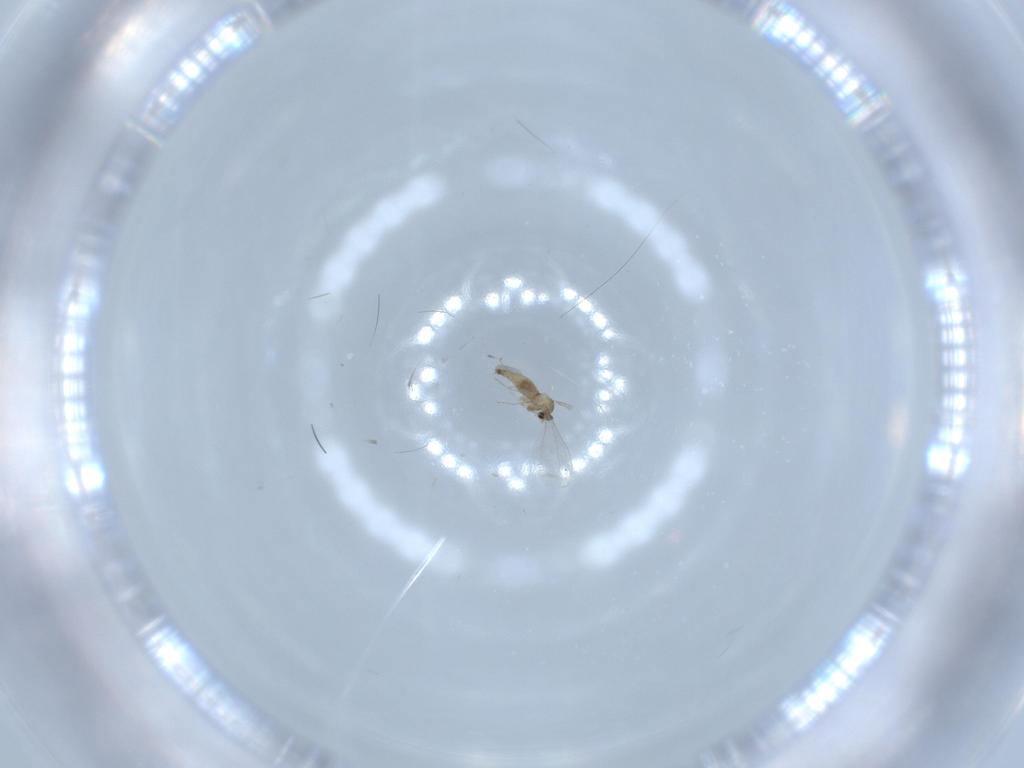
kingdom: Animalia
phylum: Arthropoda
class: Insecta
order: Diptera
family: Cecidomyiidae
